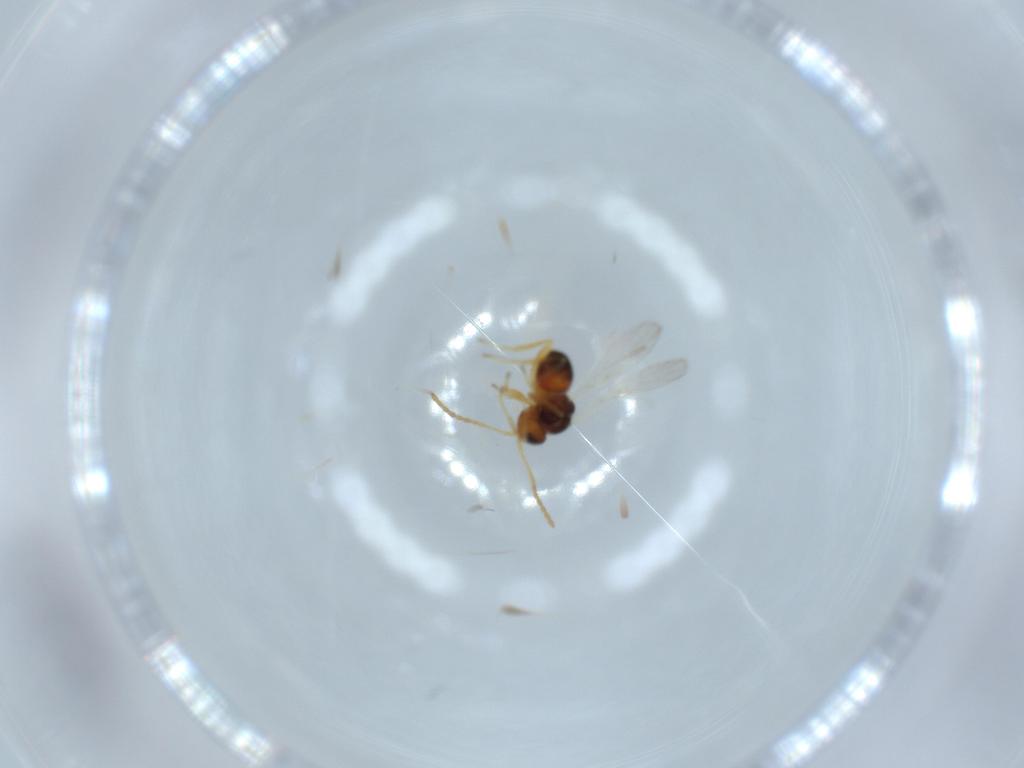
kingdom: Animalia
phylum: Arthropoda
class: Insecta
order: Hymenoptera
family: Figitidae
